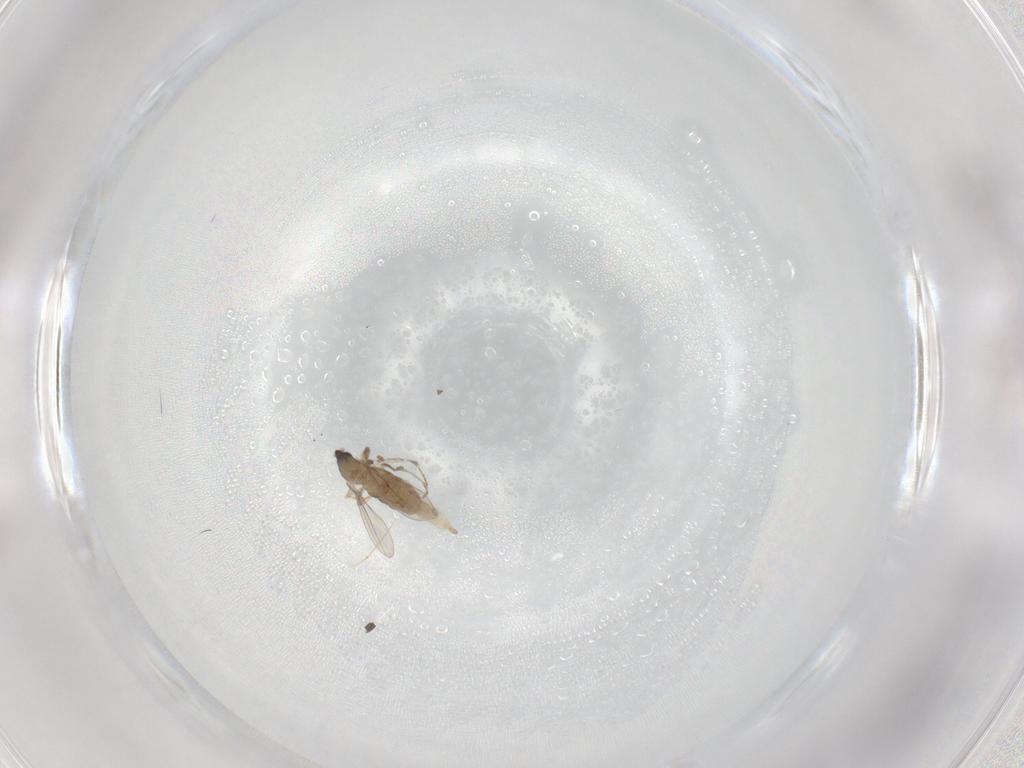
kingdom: Animalia
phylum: Arthropoda
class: Insecta
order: Diptera
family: Cecidomyiidae
